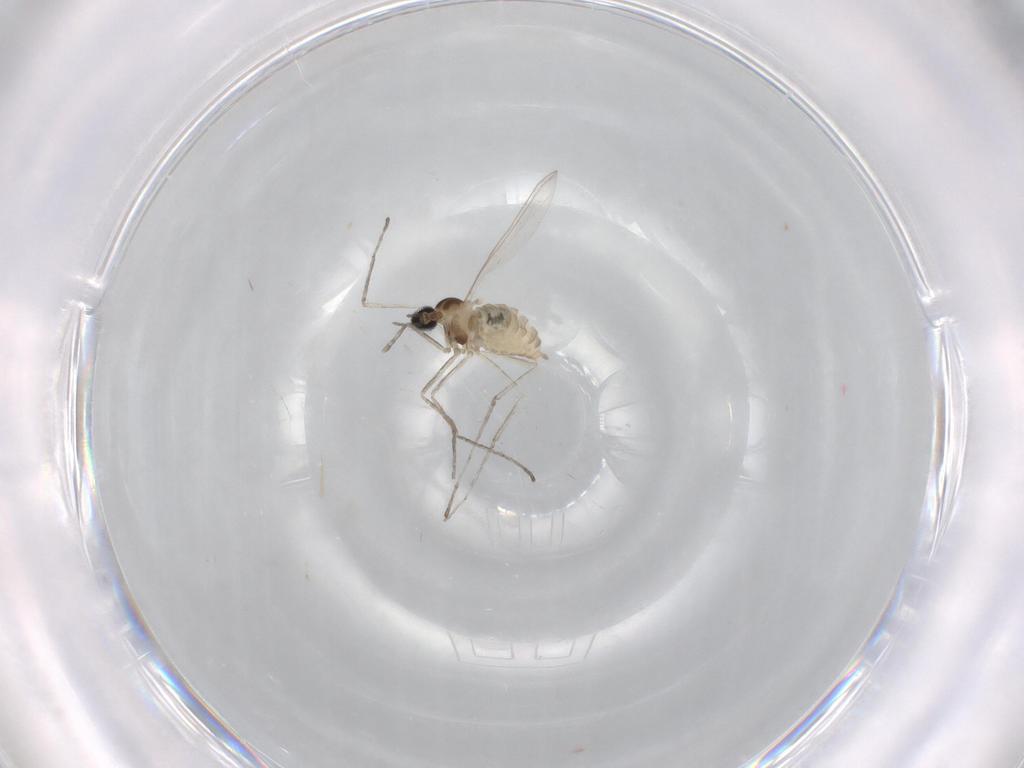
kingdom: Animalia
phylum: Arthropoda
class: Insecta
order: Diptera
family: Cecidomyiidae
